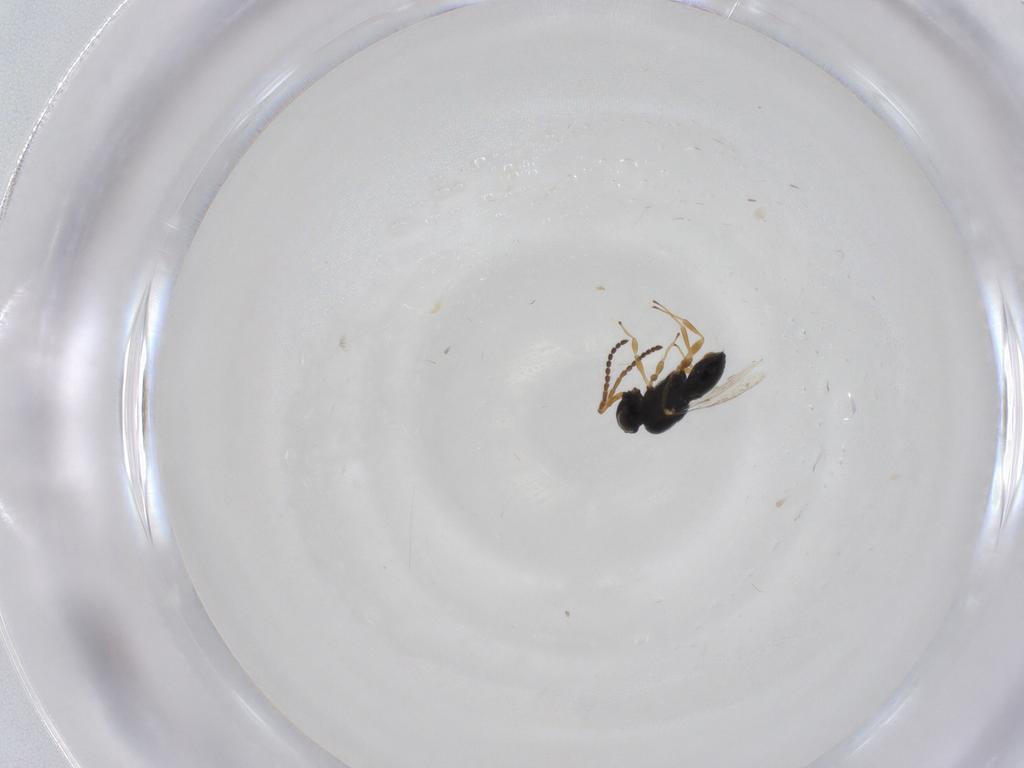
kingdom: Animalia
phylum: Arthropoda
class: Insecta
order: Hymenoptera
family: Scelionidae
